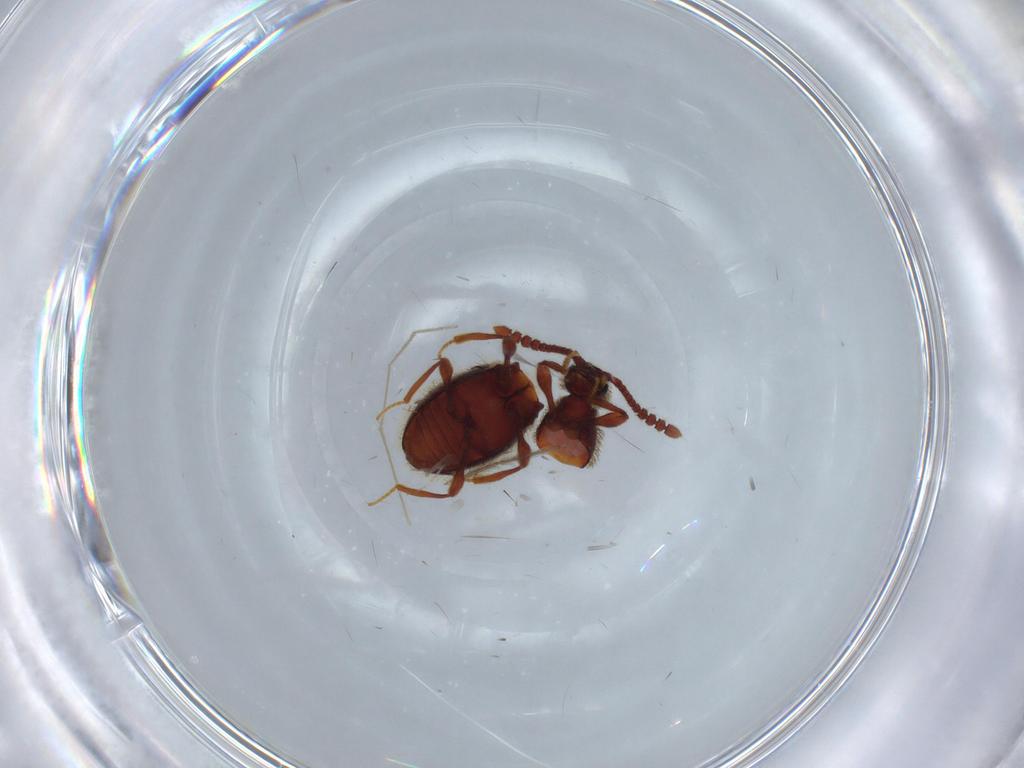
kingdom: Animalia
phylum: Arthropoda
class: Insecta
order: Coleoptera
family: Staphylinidae
